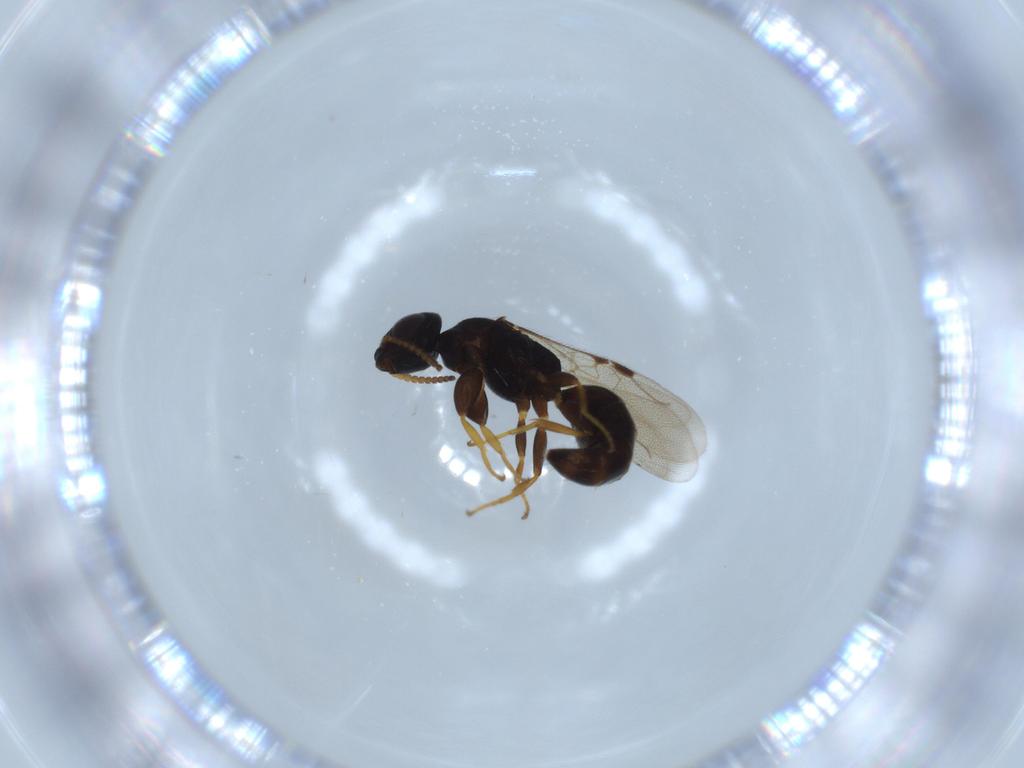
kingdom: Animalia
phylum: Arthropoda
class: Insecta
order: Hymenoptera
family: Bethylidae
